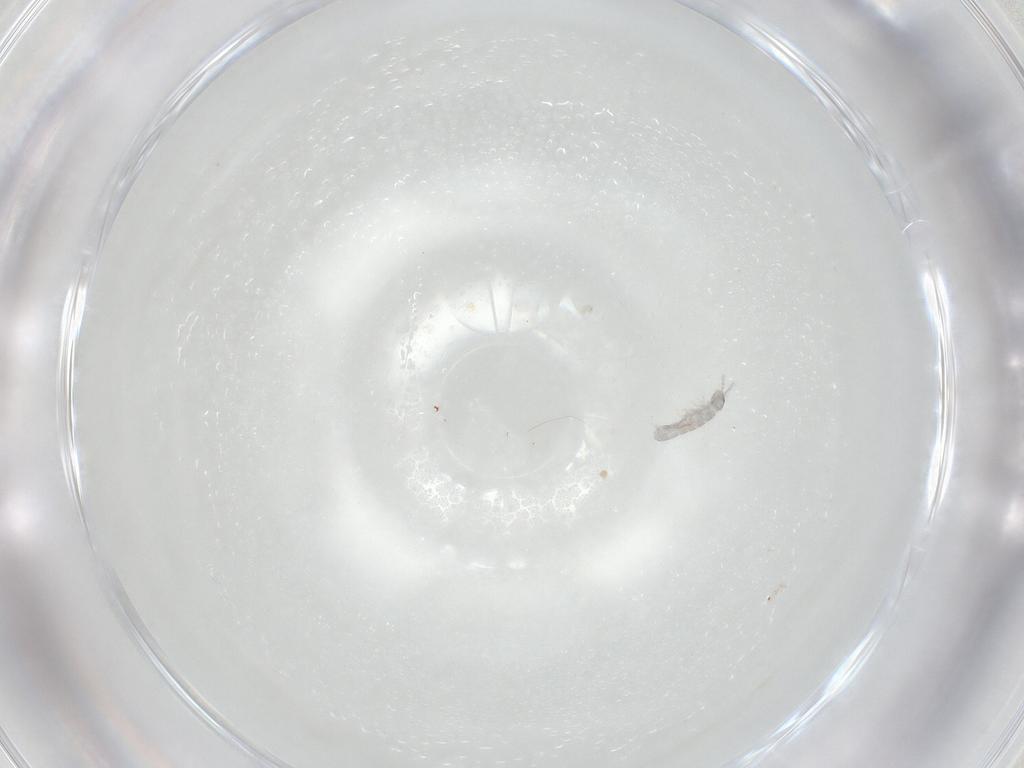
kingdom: Animalia
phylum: Arthropoda
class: Collembola
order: Entomobryomorpha
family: Isotomidae
